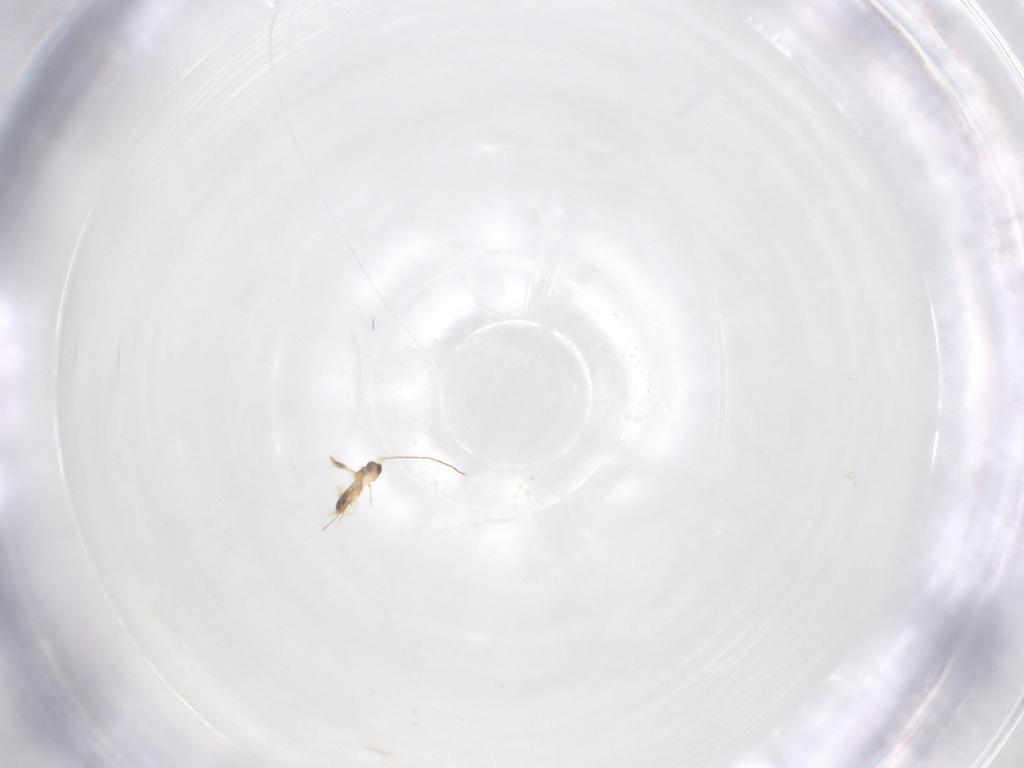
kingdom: Animalia
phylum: Arthropoda
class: Insecta
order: Hymenoptera
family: Mymaridae
